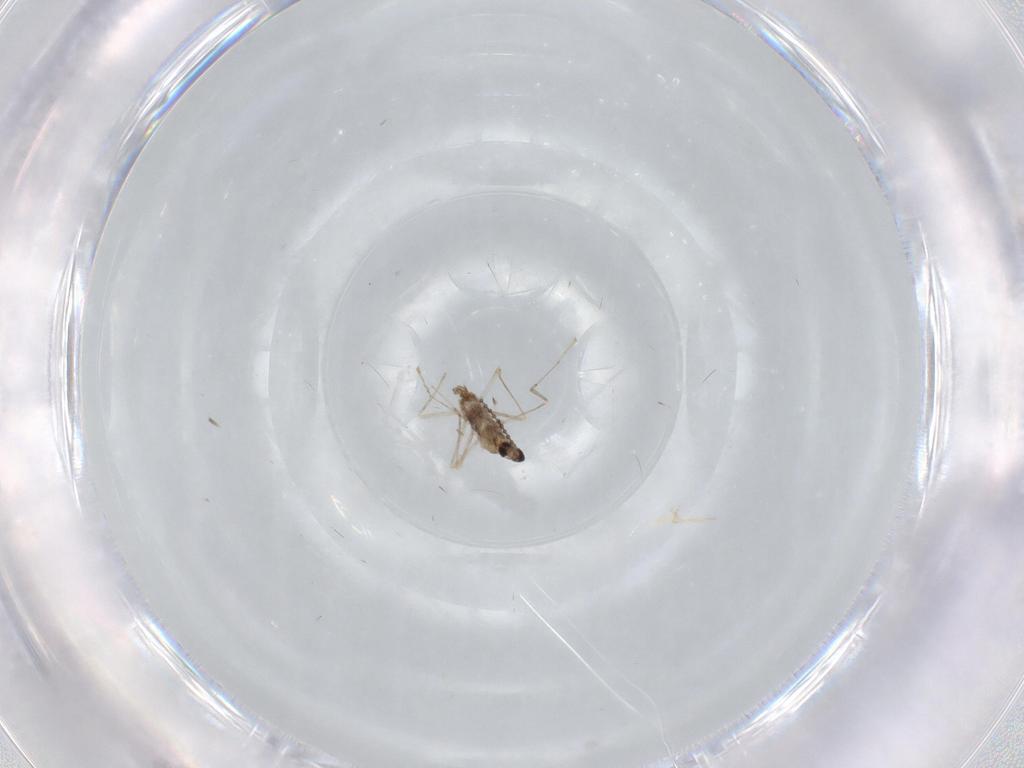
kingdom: Animalia
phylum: Arthropoda
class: Insecta
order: Diptera
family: Cecidomyiidae
